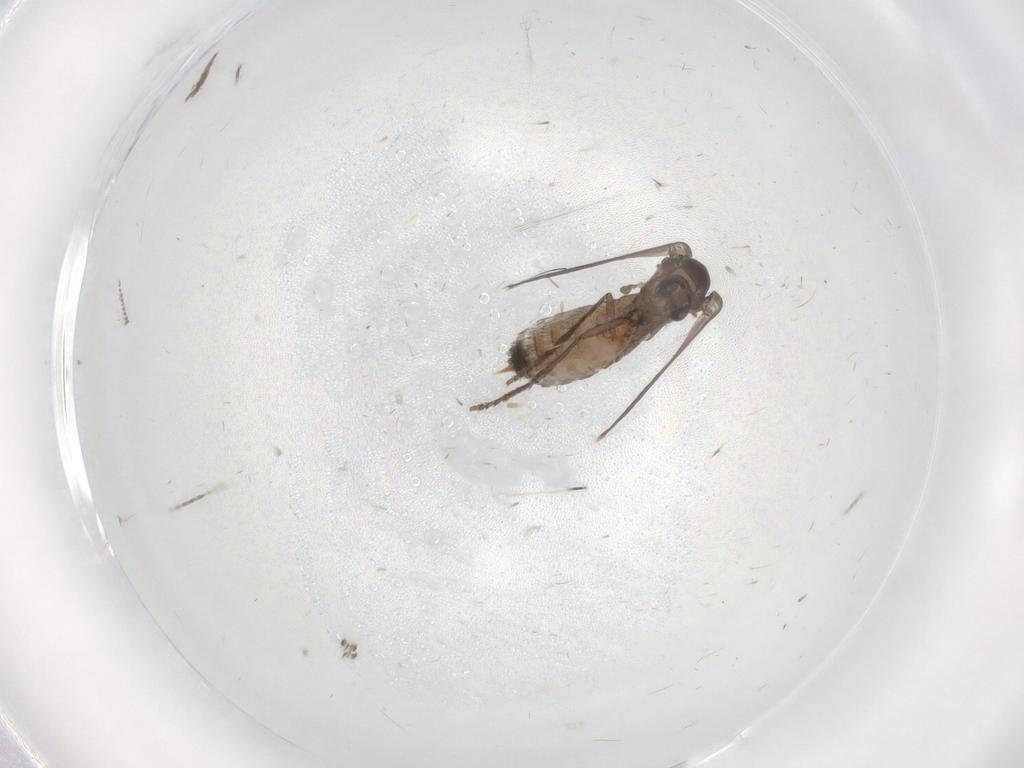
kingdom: Animalia
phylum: Arthropoda
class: Insecta
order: Diptera
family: Psychodidae
